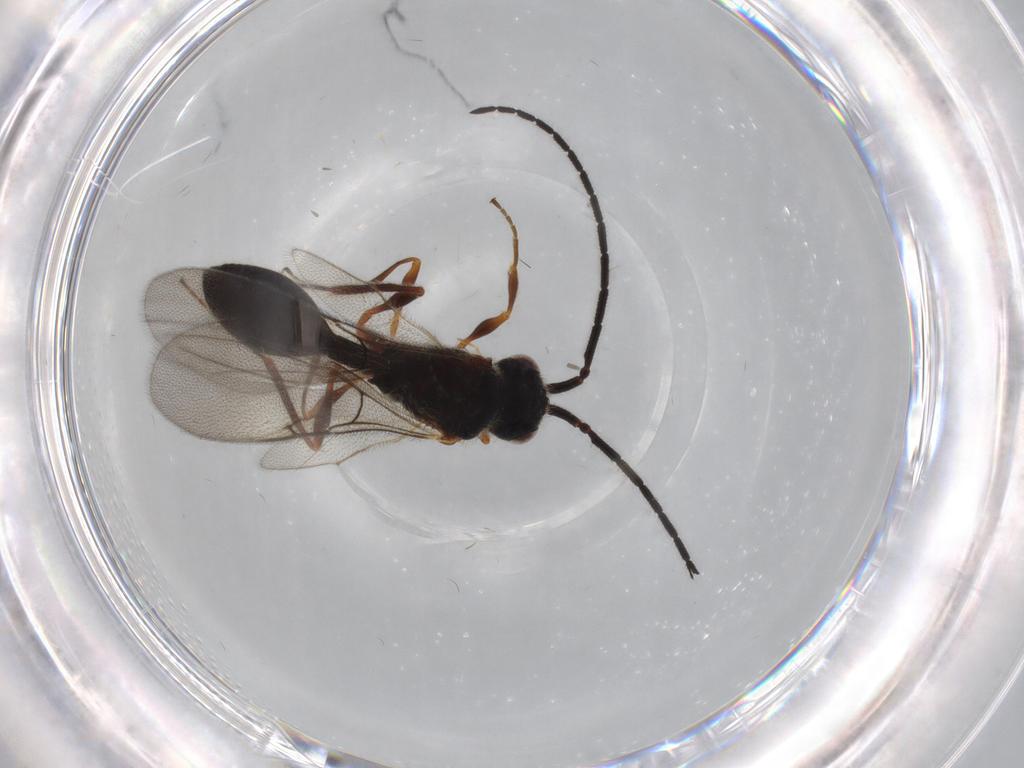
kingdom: Animalia
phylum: Arthropoda
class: Insecta
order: Hymenoptera
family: Diapriidae
